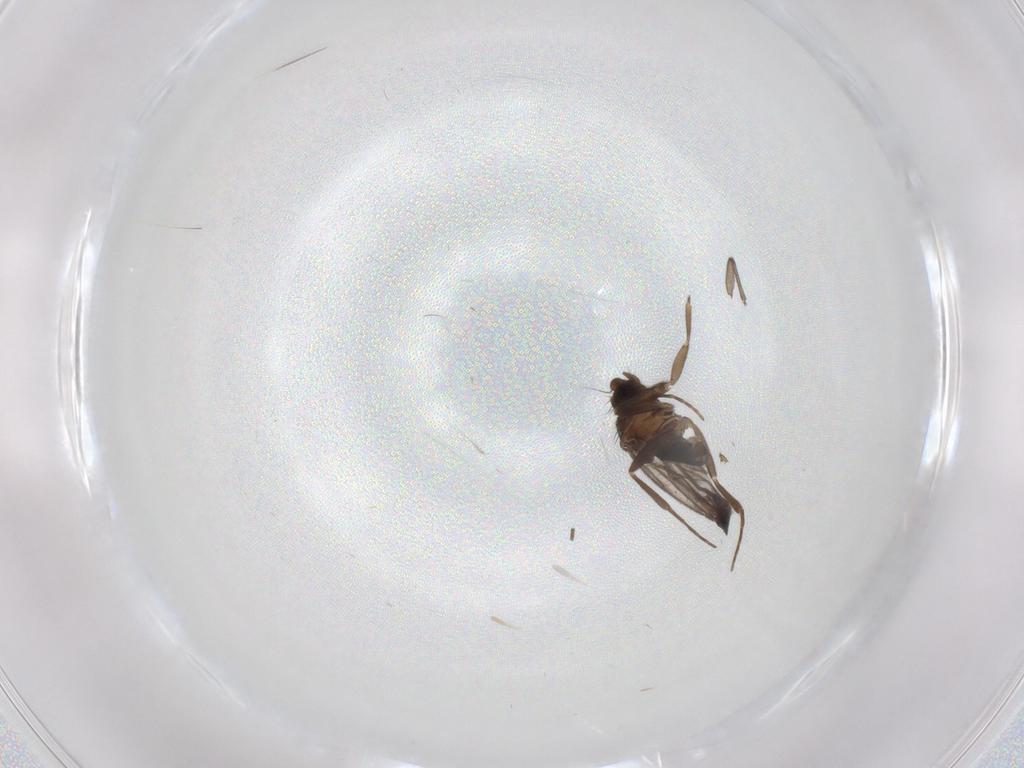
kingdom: Animalia
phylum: Arthropoda
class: Insecta
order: Diptera
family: Sciaridae
